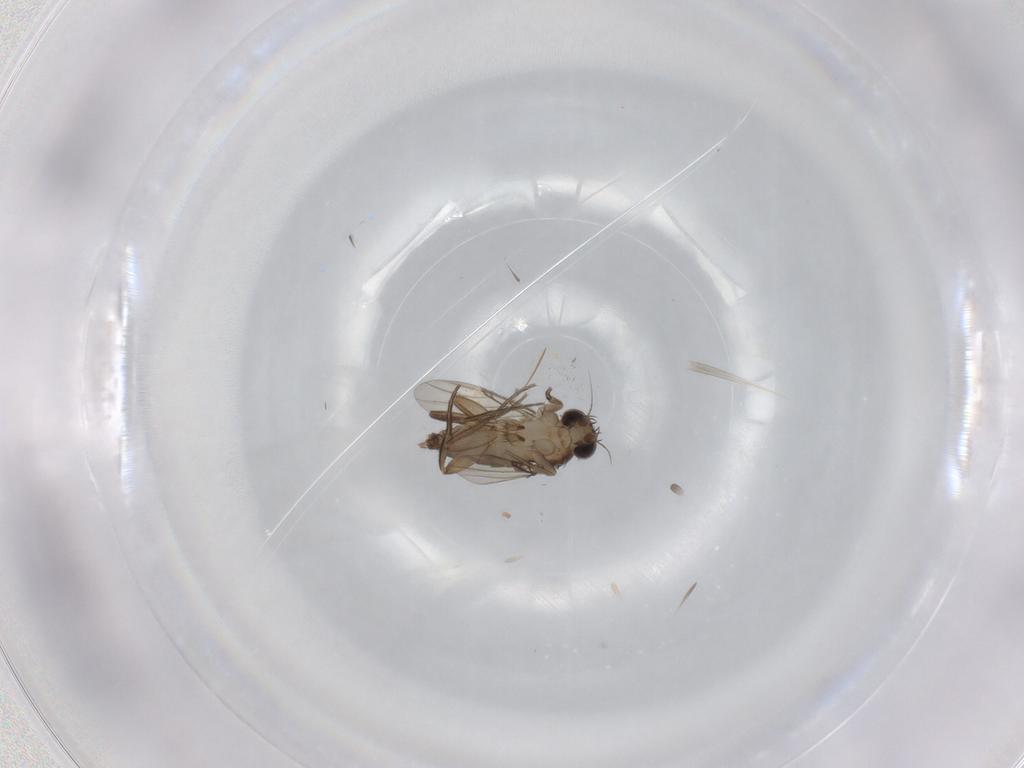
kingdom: Animalia
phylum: Arthropoda
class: Insecta
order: Diptera
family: Phoridae
